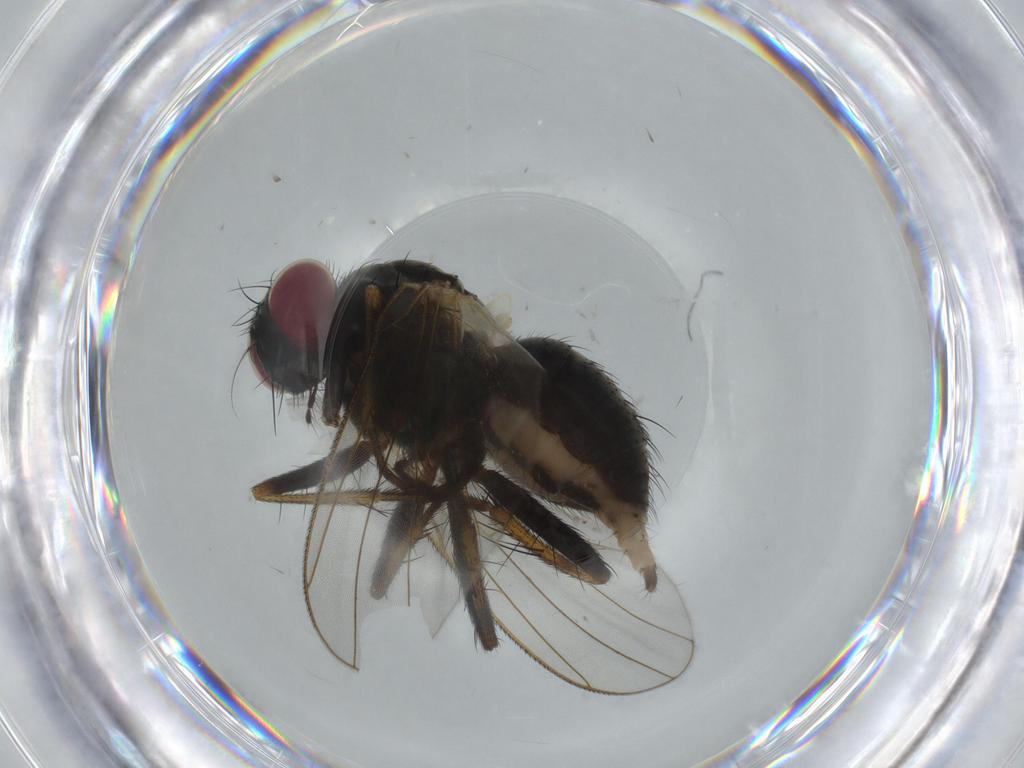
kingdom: Animalia
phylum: Arthropoda
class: Insecta
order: Diptera
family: Pipunculidae
